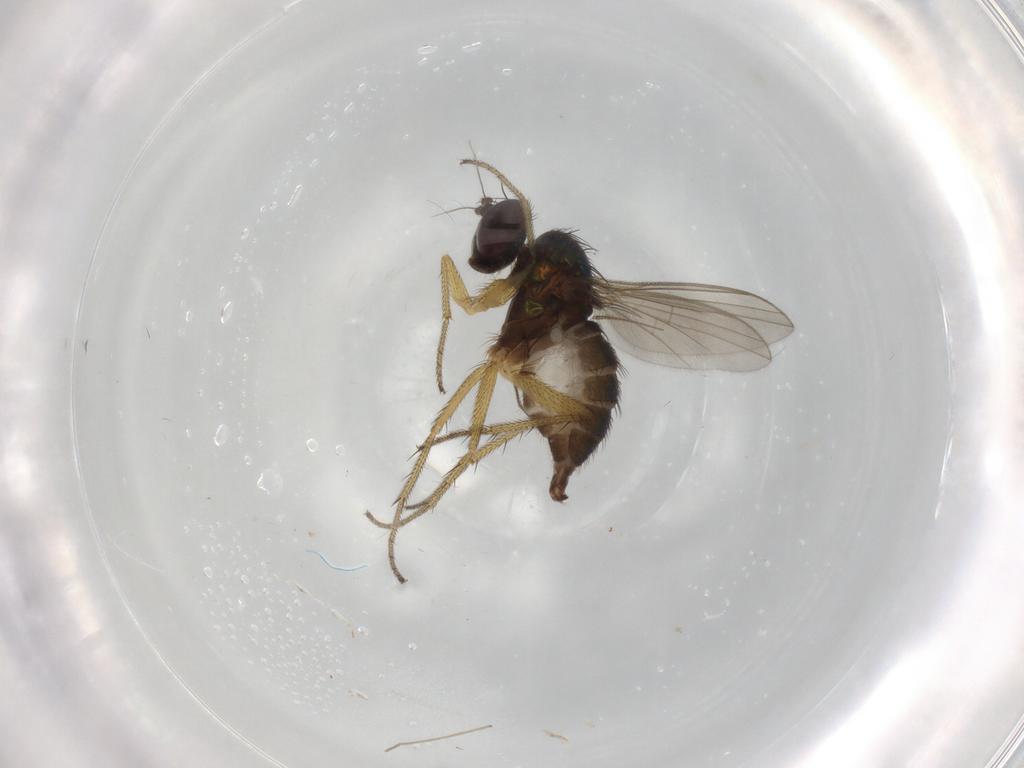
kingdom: Animalia
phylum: Arthropoda
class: Insecta
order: Diptera
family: Dolichopodidae
